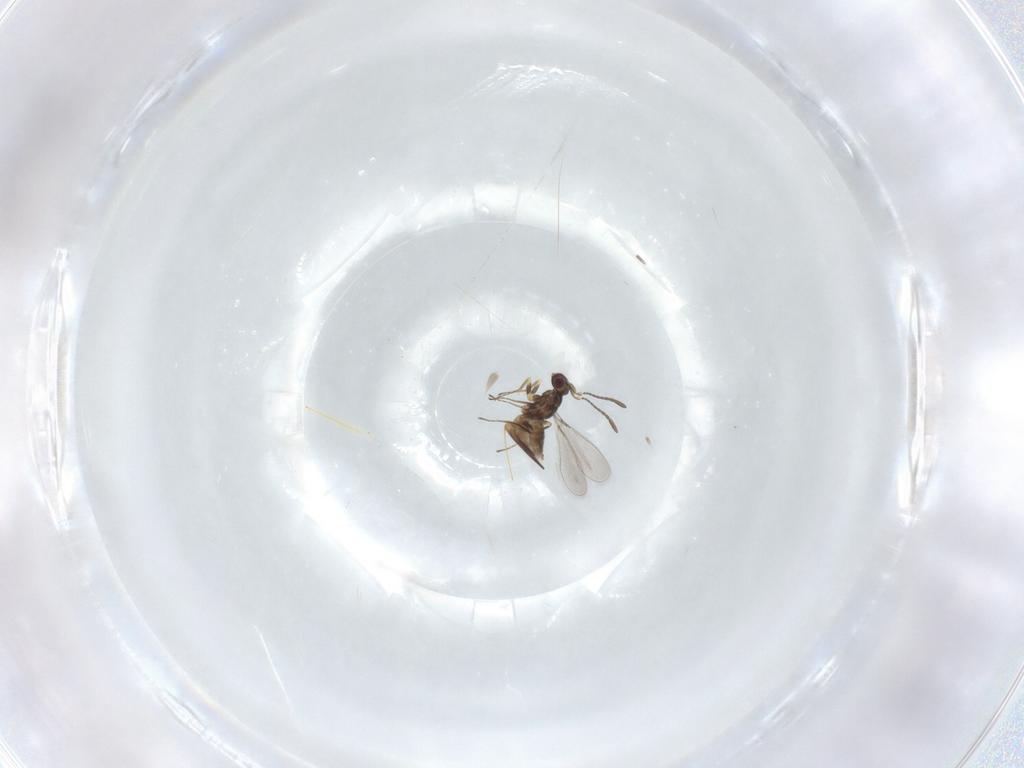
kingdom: Animalia
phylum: Arthropoda
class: Insecta
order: Hymenoptera
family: Mymaridae
